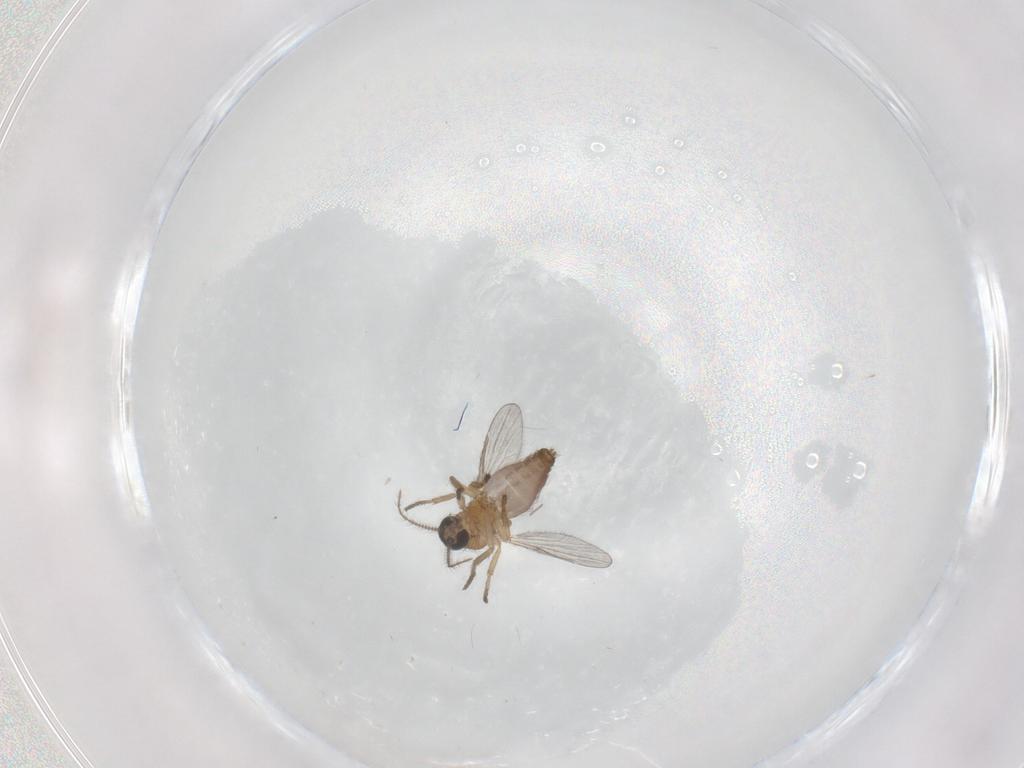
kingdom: Animalia
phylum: Arthropoda
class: Insecta
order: Diptera
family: Ceratopogonidae
